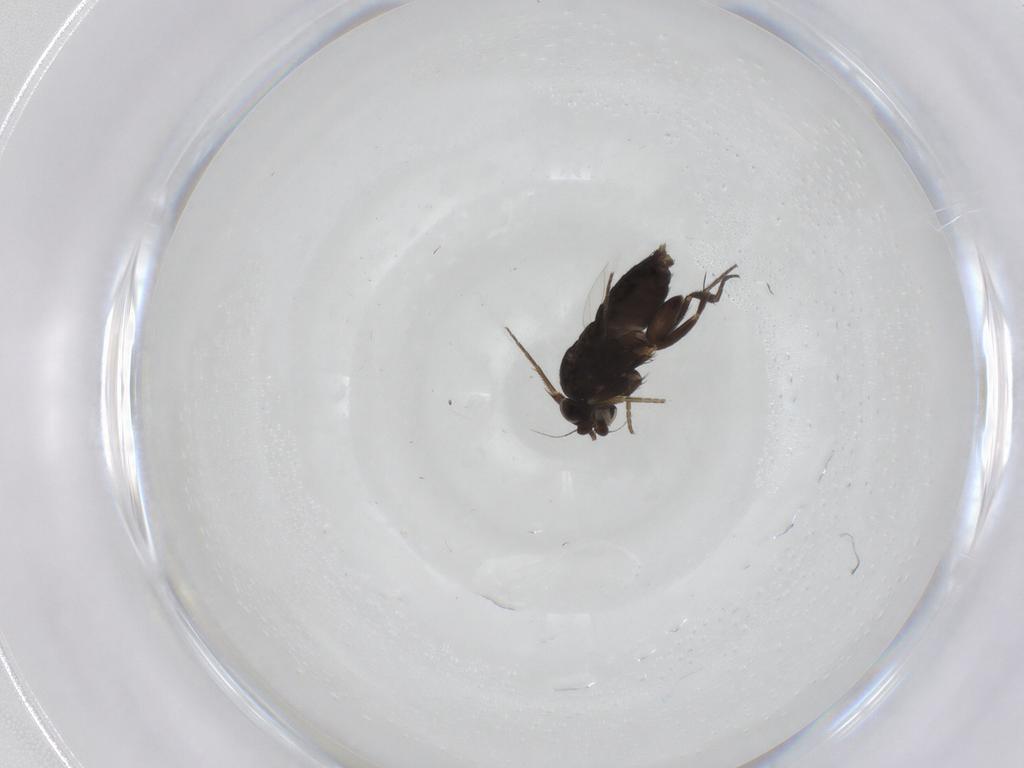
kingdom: Animalia
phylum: Arthropoda
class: Insecta
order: Diptera
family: Phoridae
